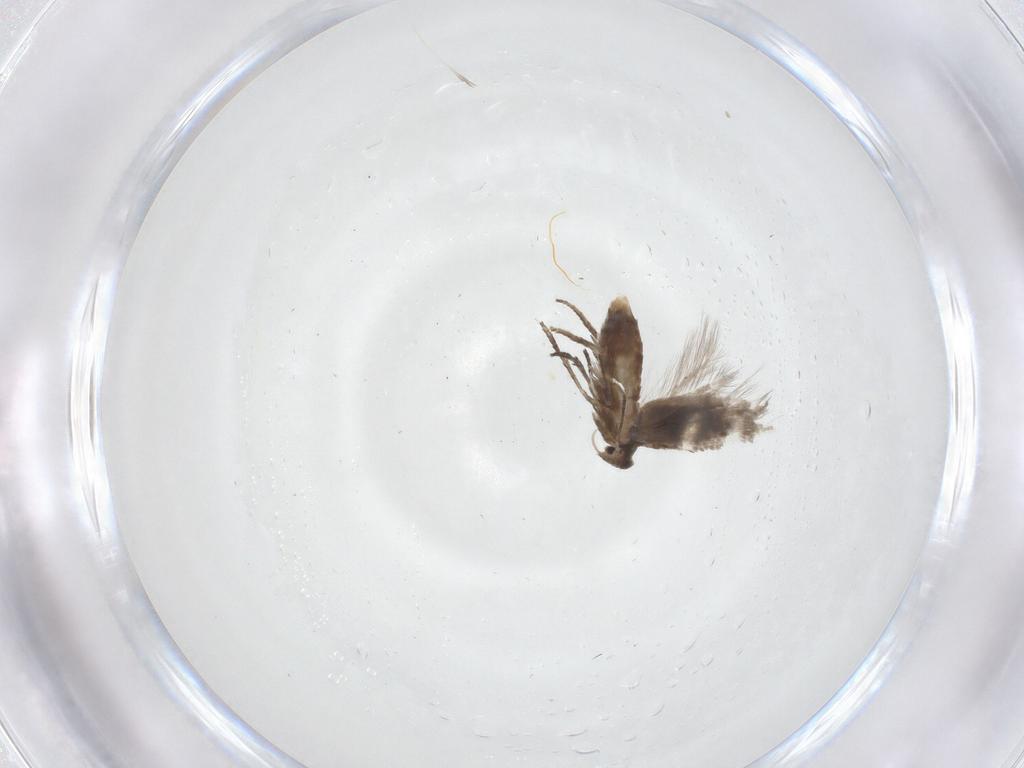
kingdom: Animalia
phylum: Arthropoda
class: Insecta
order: Lepidoptera
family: Lyonetiidae
